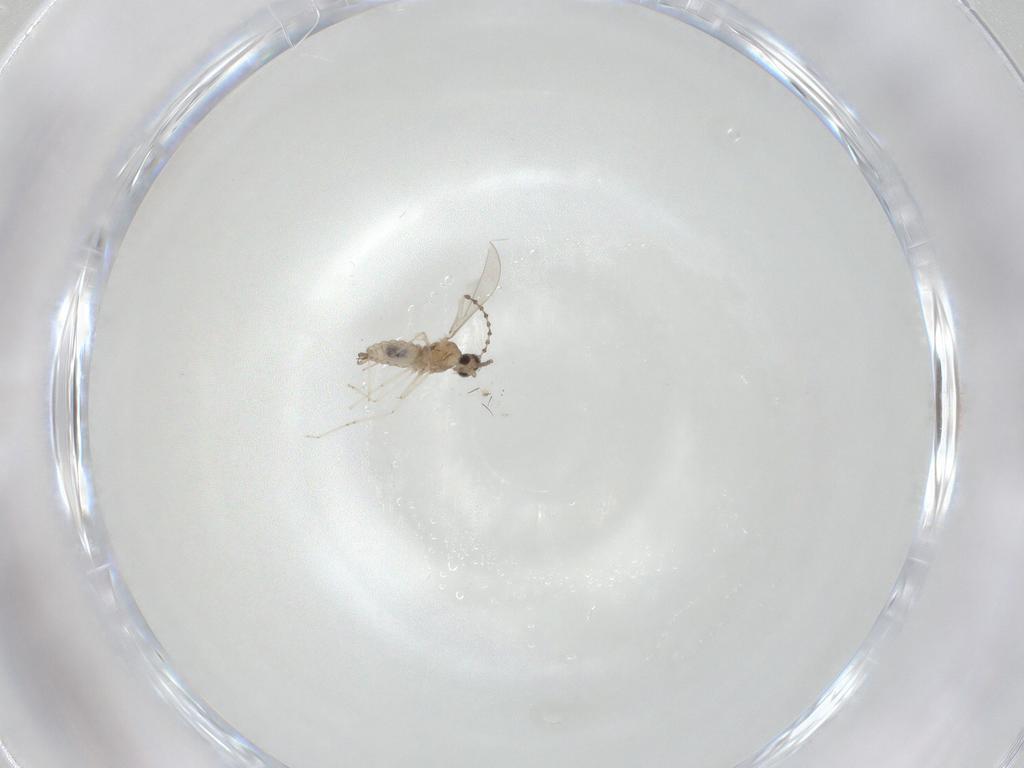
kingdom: Animalia
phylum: Arthropoda
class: Insecta
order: Diptera
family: Cecidomyiidae
